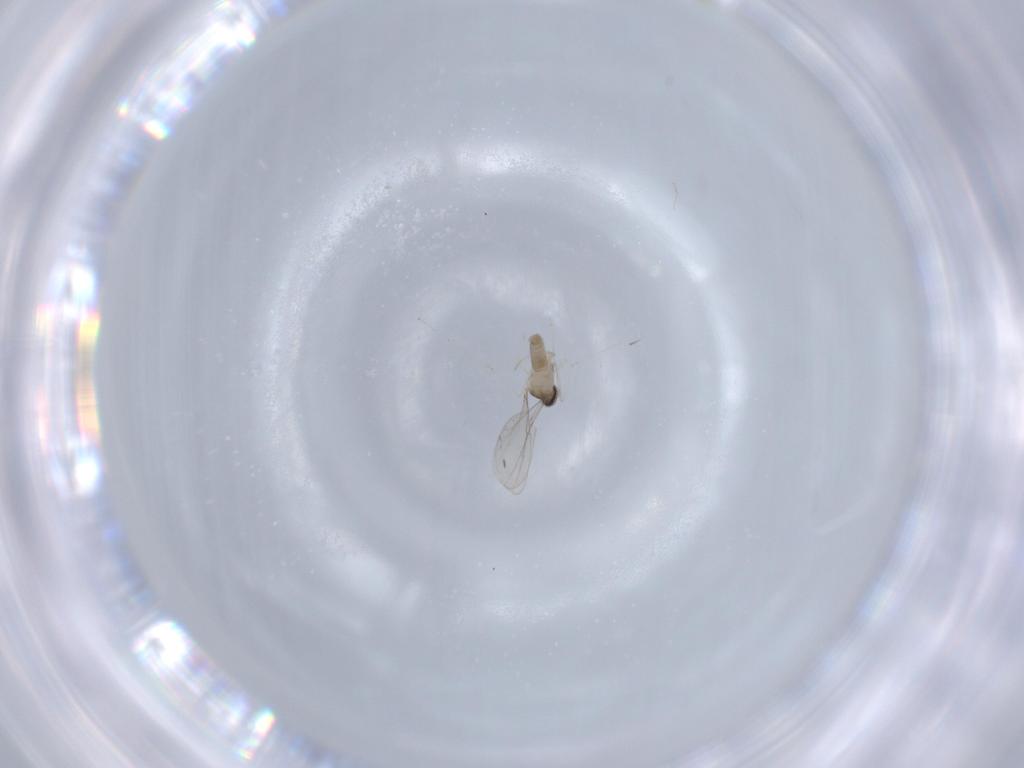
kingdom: Animalia
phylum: Arthropoda
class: Insecta
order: Diptera
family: Cecidomyiidae
